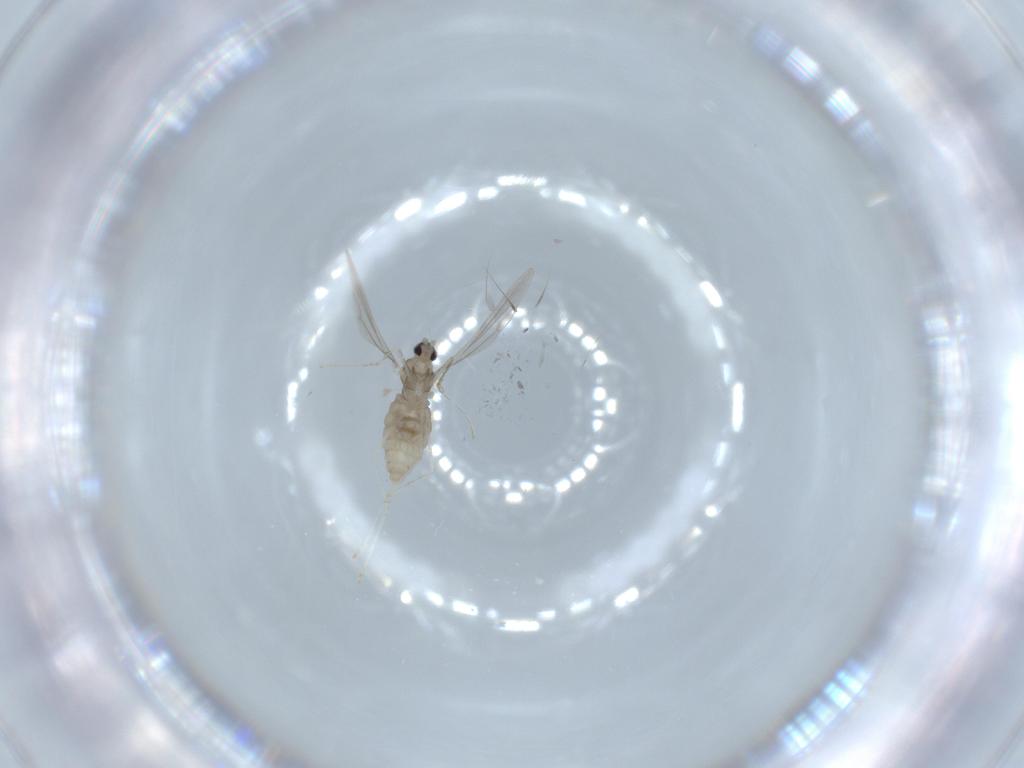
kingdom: Animalia
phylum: Arthropoda
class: Insecta
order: Diptera
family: Cecidomyiidae
